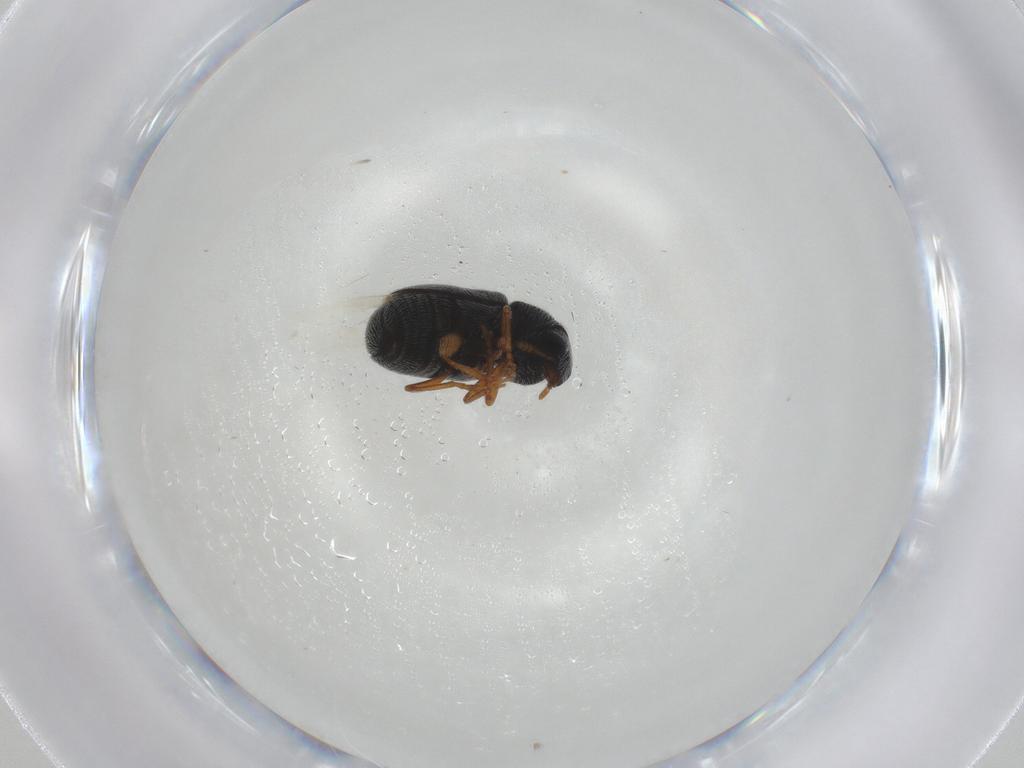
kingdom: Animalia
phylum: Arthropoda
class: Insecta
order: Coleoptera
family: Anthribidae
